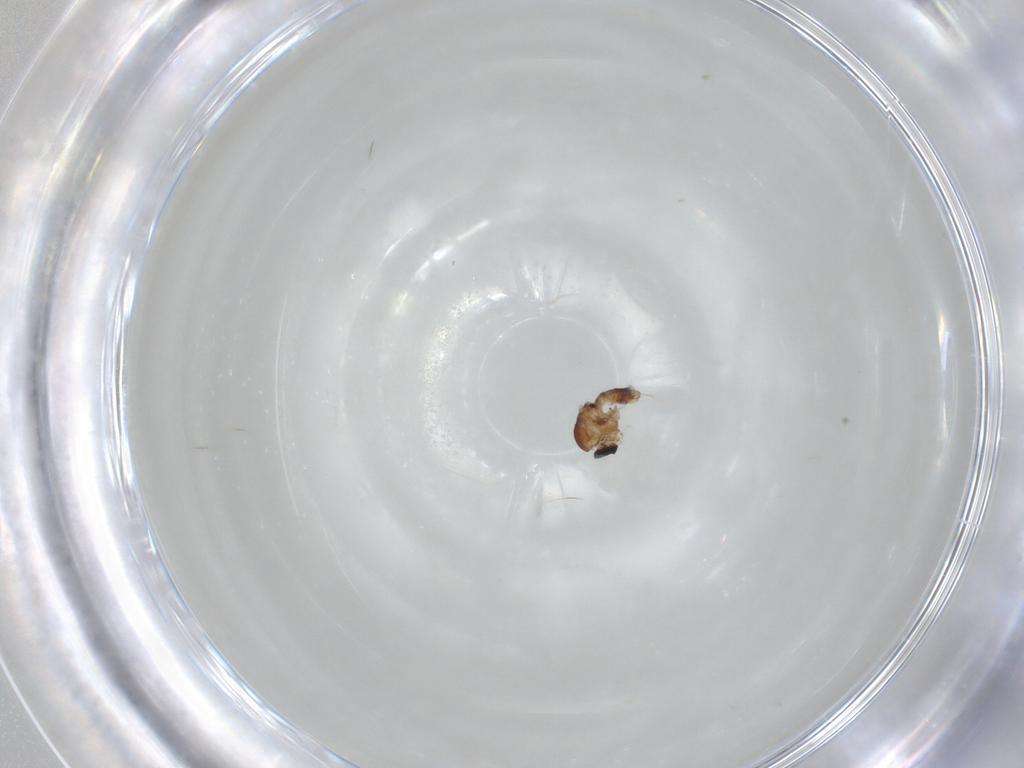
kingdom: Animalia
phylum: Arthropoda
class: Insecta
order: Diptera
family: Ceratopogonidae
